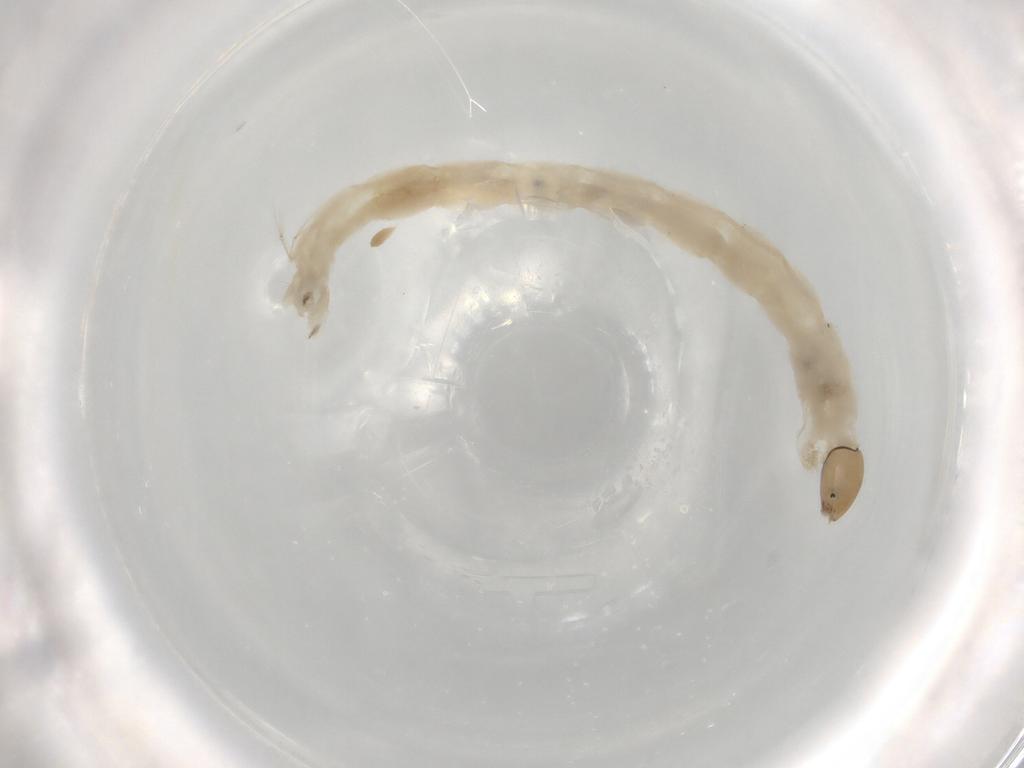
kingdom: Animalia
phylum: Arthropoda
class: Insecta
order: Diptera
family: Chironomidae
